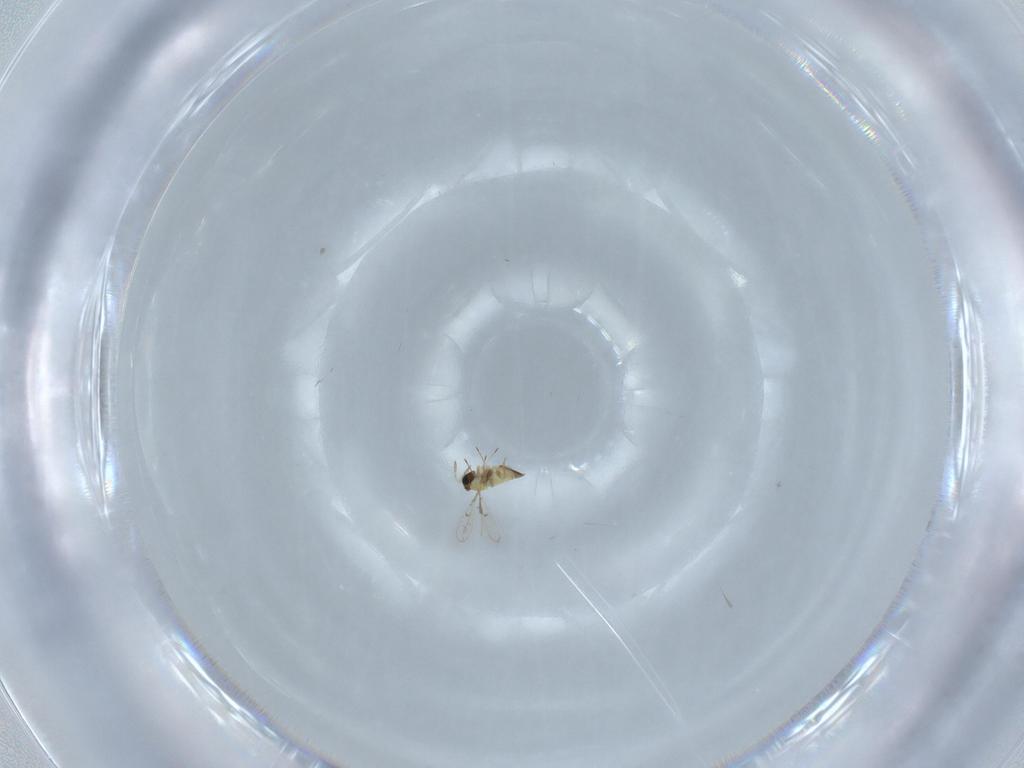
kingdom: Animalia
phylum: Arthropoda
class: Insecta
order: Hymenoptera
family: Trichogrammatidae
